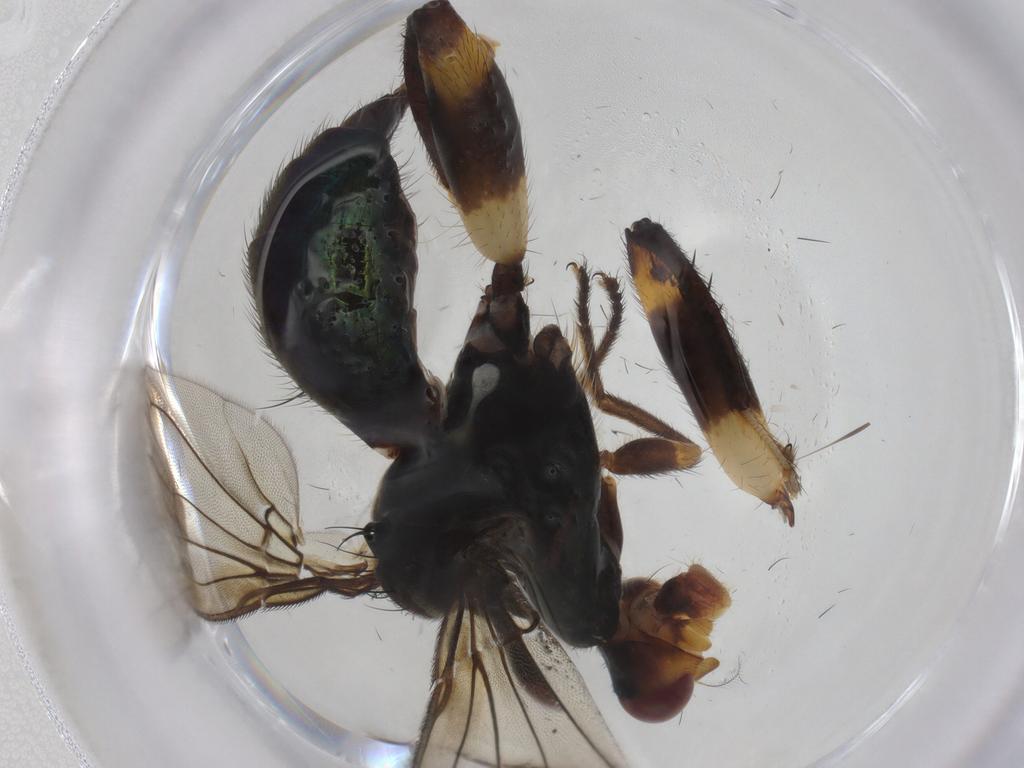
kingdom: Animalia
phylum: Arthropoda
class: Insecta
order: Diptera
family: Richardiidae
